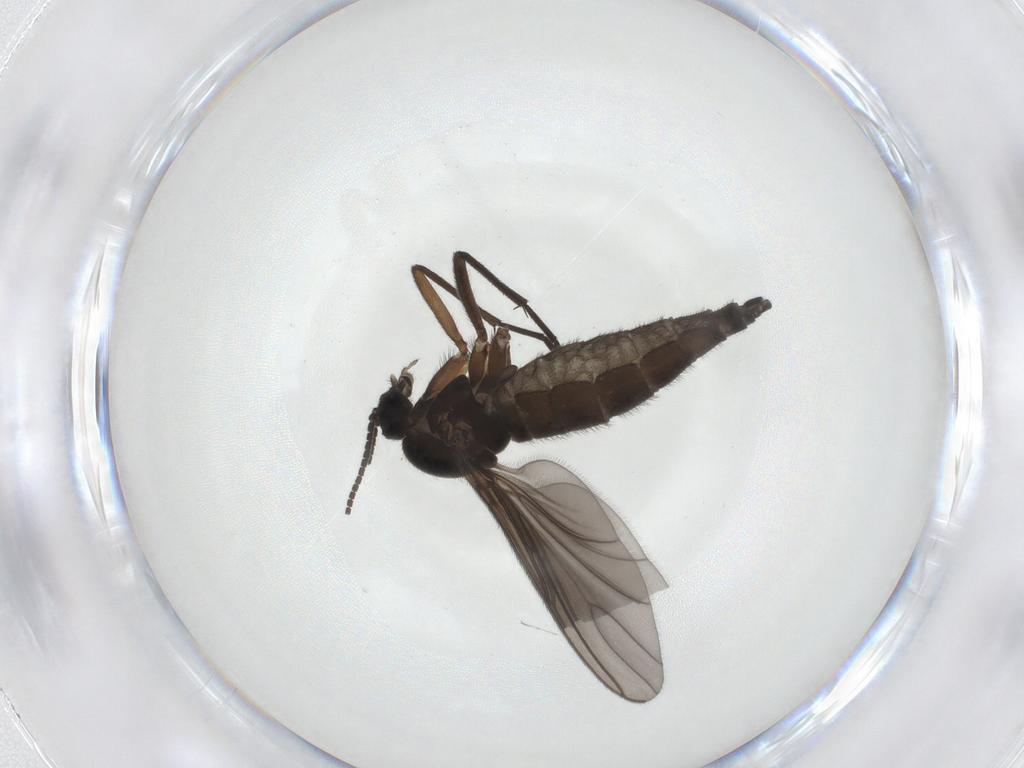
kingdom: Animalia
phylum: Arthropoda
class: Insecta
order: Diptera
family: Sciaridae
